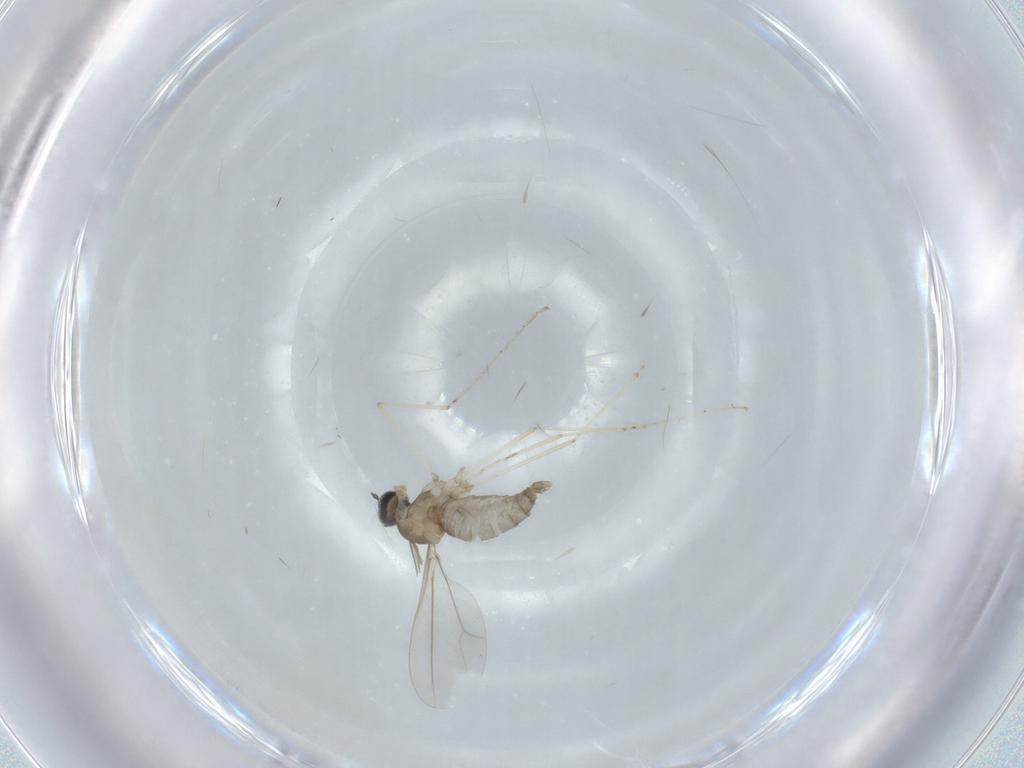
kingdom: Animalia
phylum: Arthropoda
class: Insecta
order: Diptera
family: Cecidomyiidae
